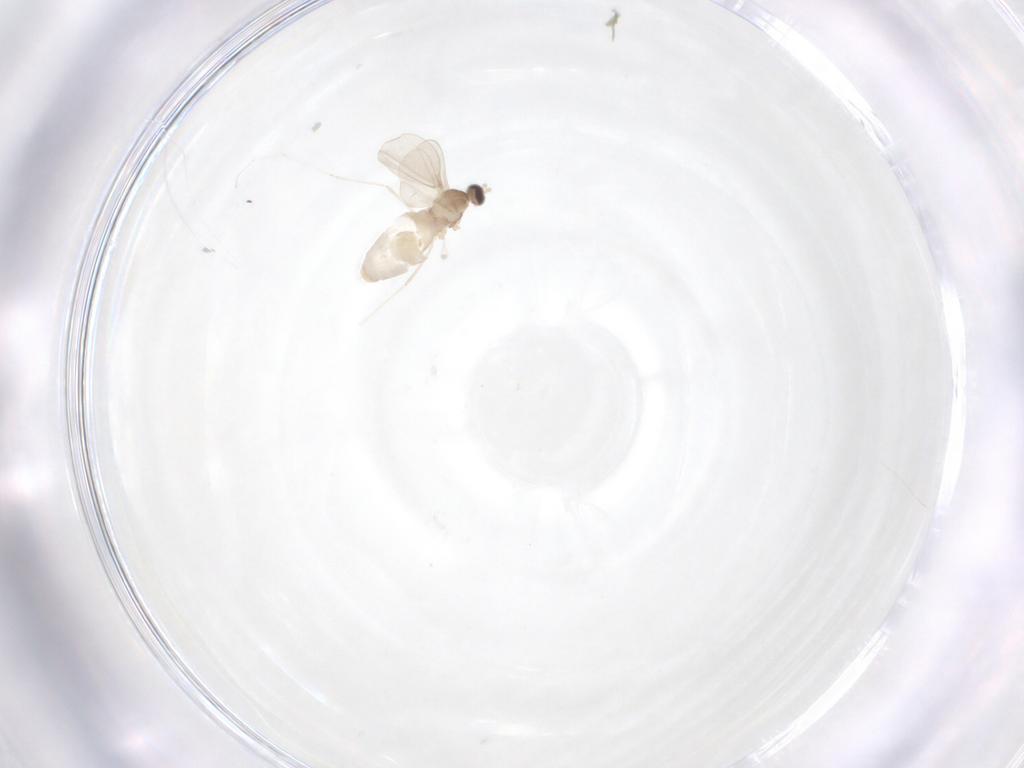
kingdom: Animalia
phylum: Arthropoda
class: Insecta
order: Diptera
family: Cecidomyiidae
